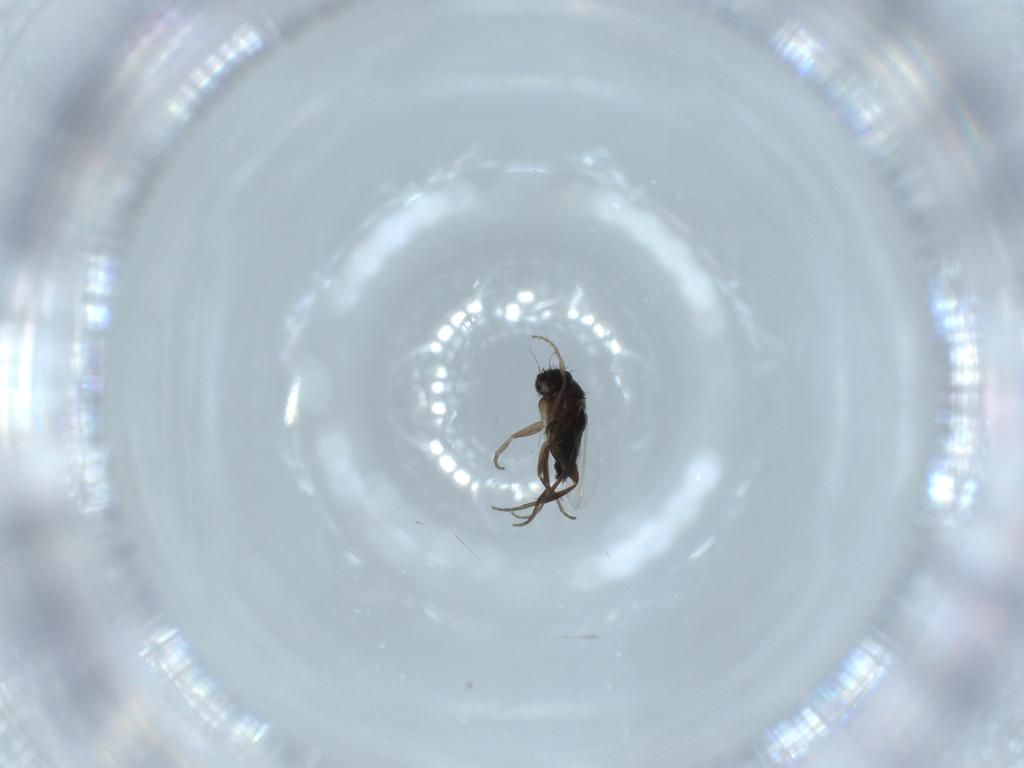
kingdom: Animalia
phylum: Arthropoda
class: Insecta
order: Diptera
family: Phoridae
